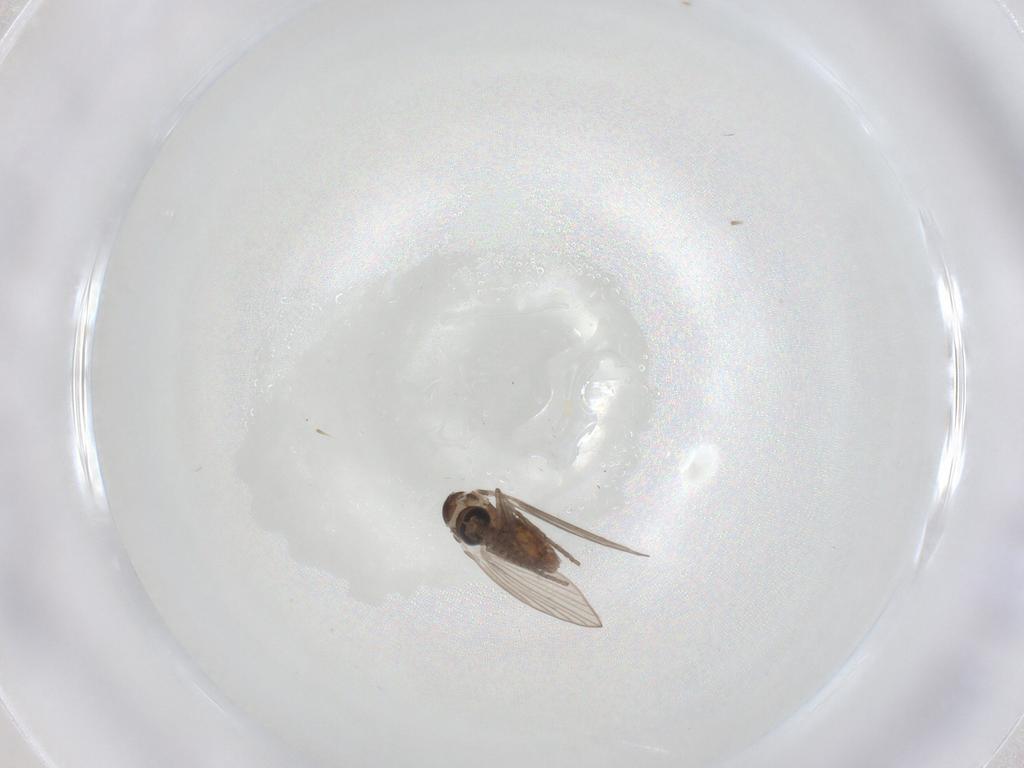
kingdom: Animalia
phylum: Arthropoda
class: Insecta
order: Diptera
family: Psychodidae
